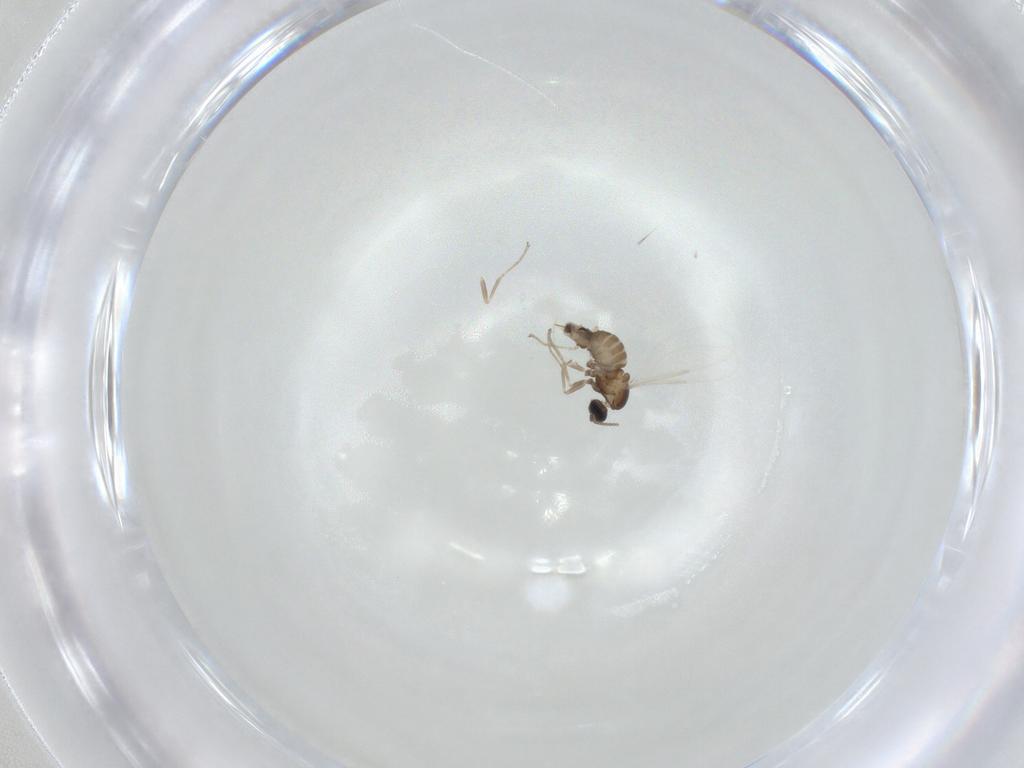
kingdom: Animalia
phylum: Arthropoda
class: Insecta
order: Diptera
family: Cecidomyiidae
